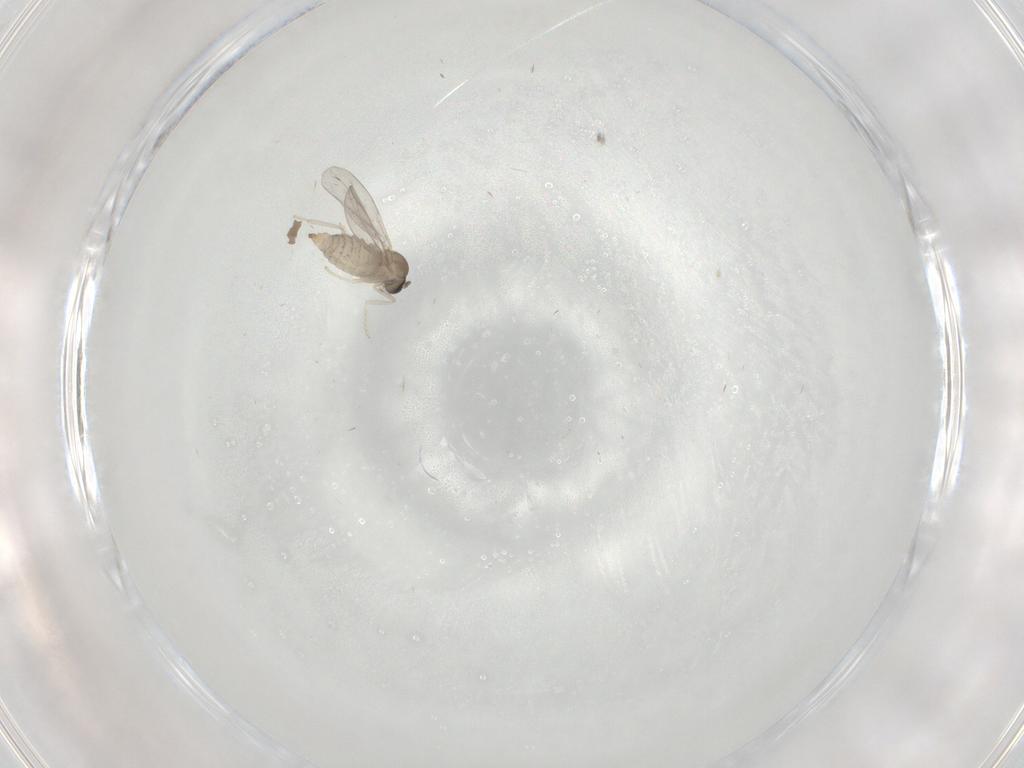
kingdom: Animalia
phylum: Arthropoda
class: Insecta
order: Diptera
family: Cecidomyiidae
